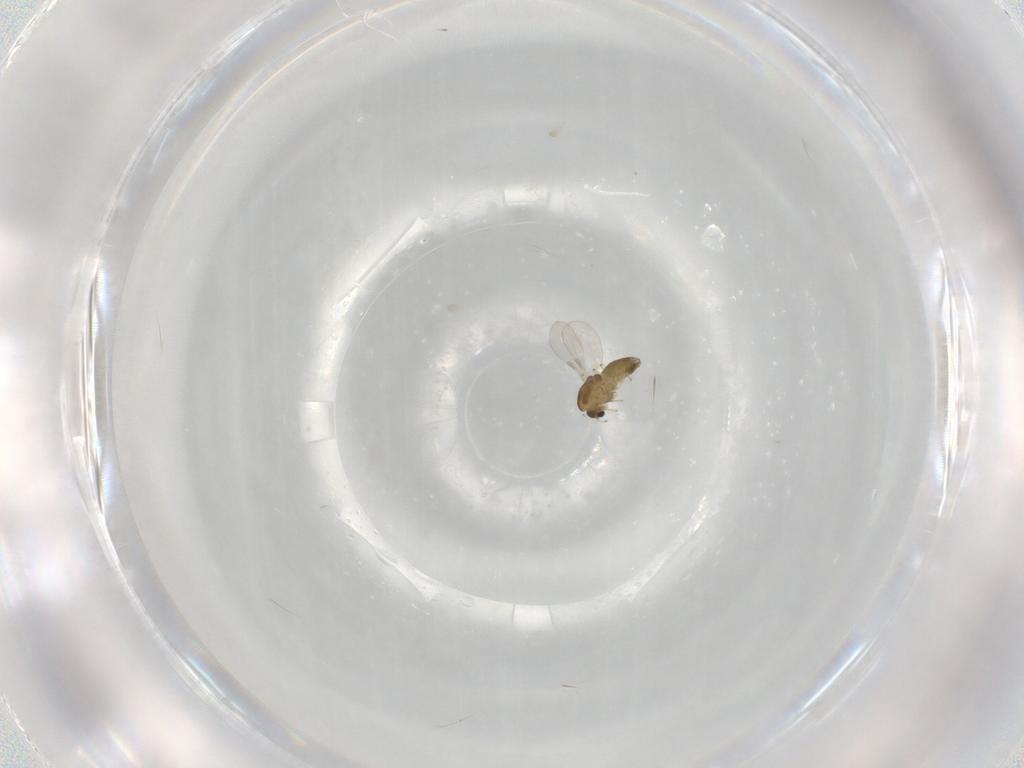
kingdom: Animalia
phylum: Arthropoda
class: Insecta
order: Diptera
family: Chironomidae
